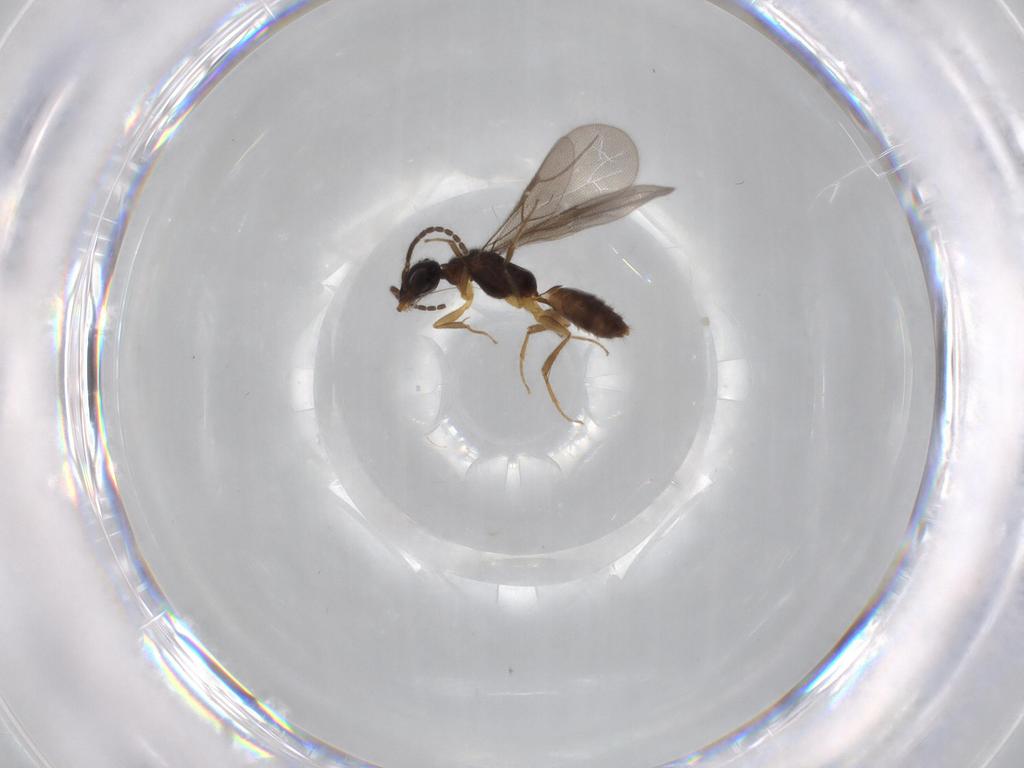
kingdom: Animalia
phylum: Arthropoda
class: Insecta
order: Hymenoptera
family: Bethylidae
